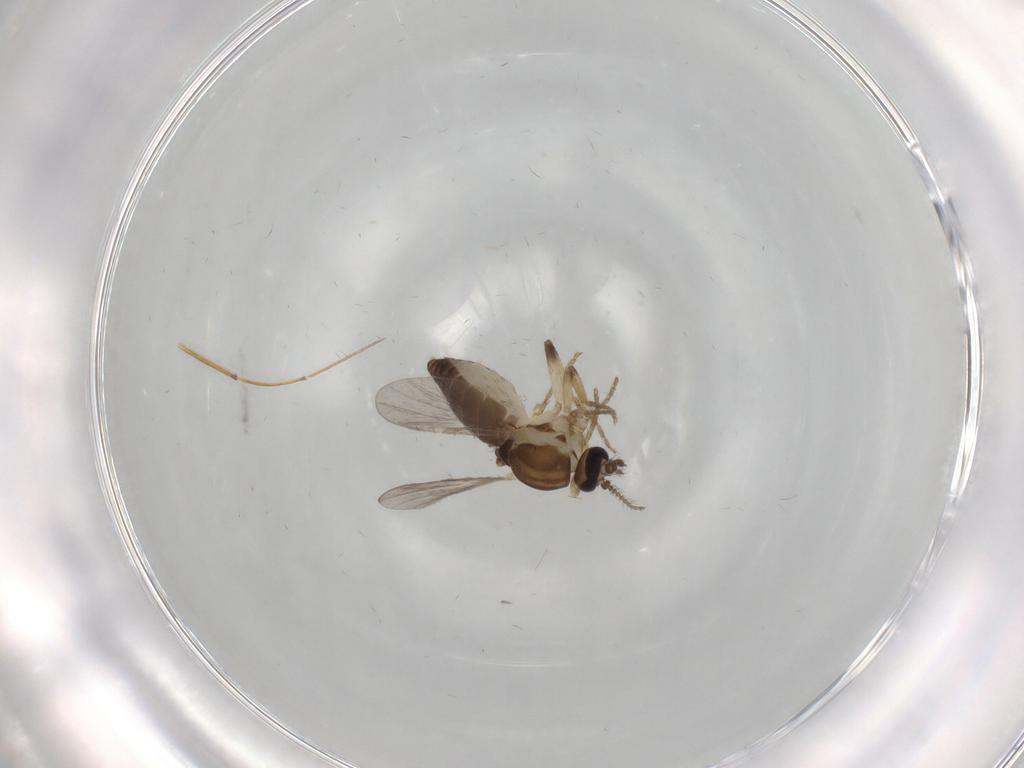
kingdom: Animalia
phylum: Arthropoda
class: Insecta
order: Diptera
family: Ceratopogonidae
